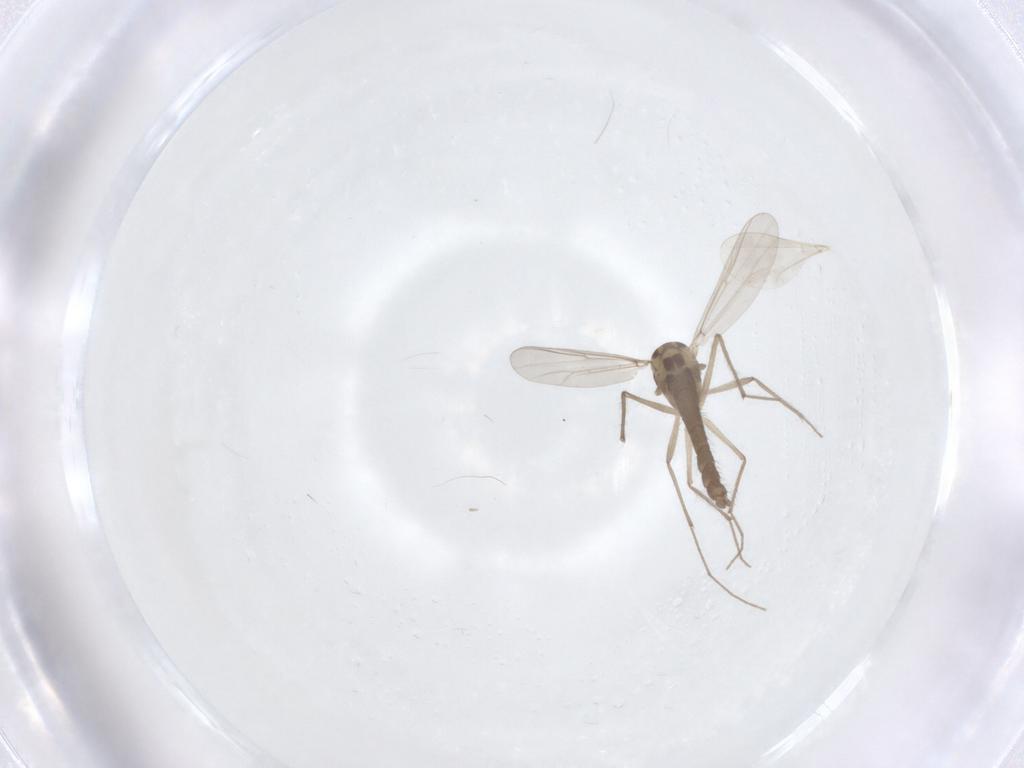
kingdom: Animalia
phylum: Arthropoda
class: Insecta
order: Diptera
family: Chironomidae
